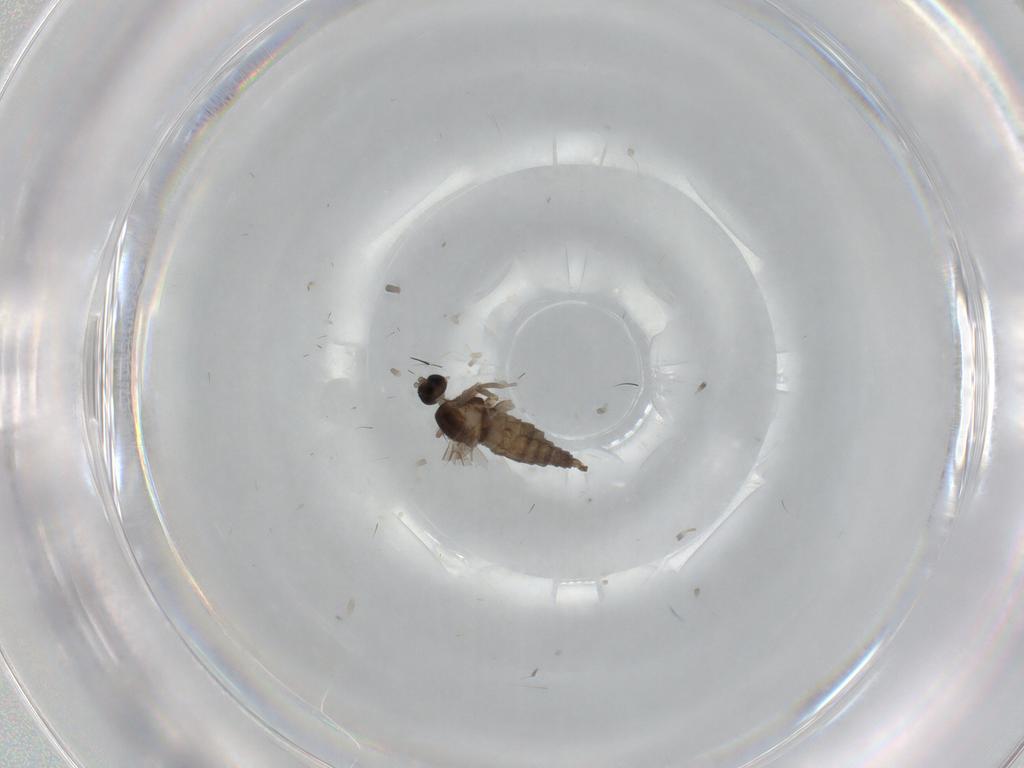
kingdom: Animalia
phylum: Arthropoda
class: Insecta
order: Diptera
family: Cecidomyiidae
